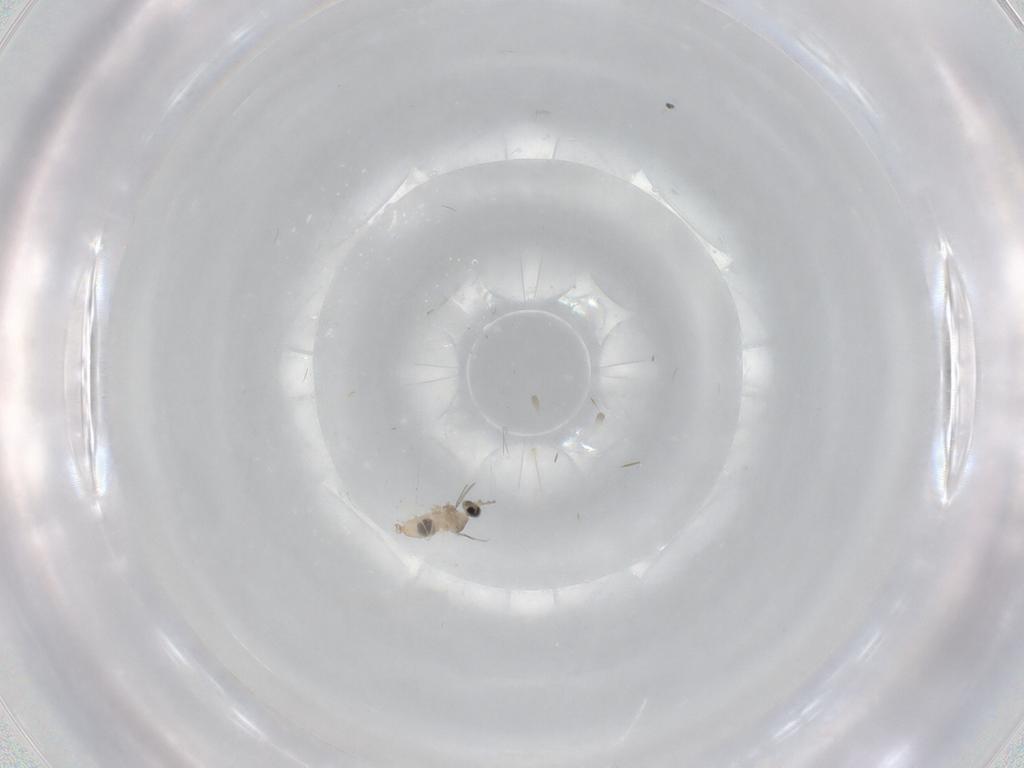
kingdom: Animalia
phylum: Arthropoda
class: Insecta
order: Diptera
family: Cecidomyiidae
